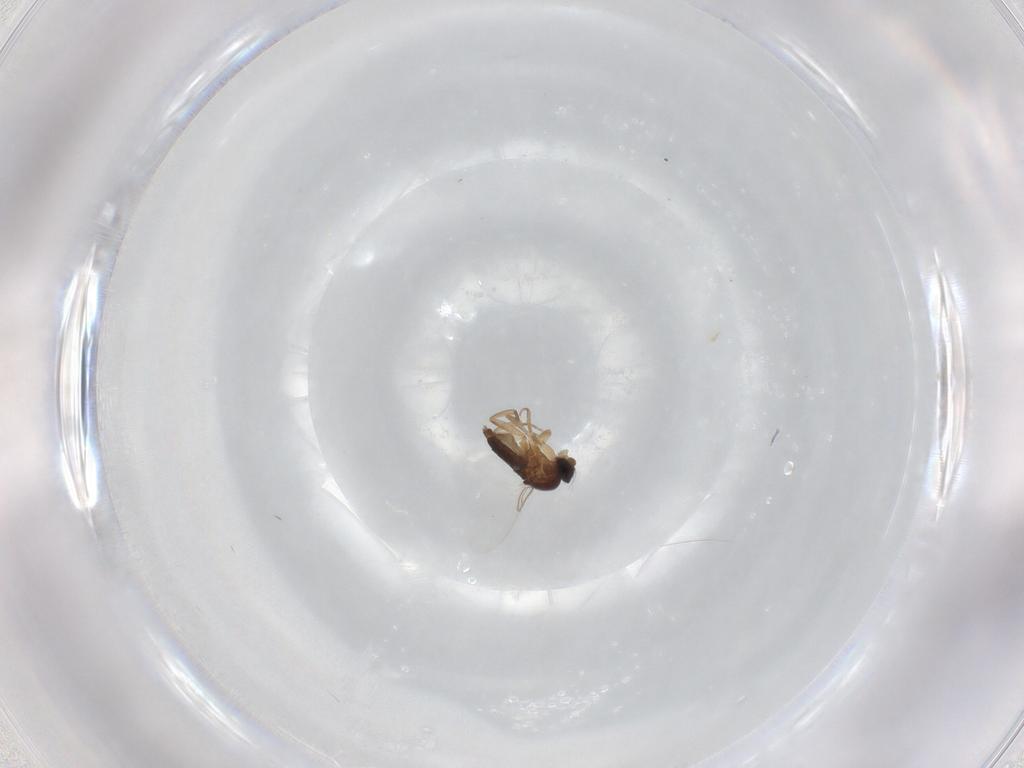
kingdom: Animalia
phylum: Arthropoda
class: Insecta
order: Diptera
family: Phoridae
